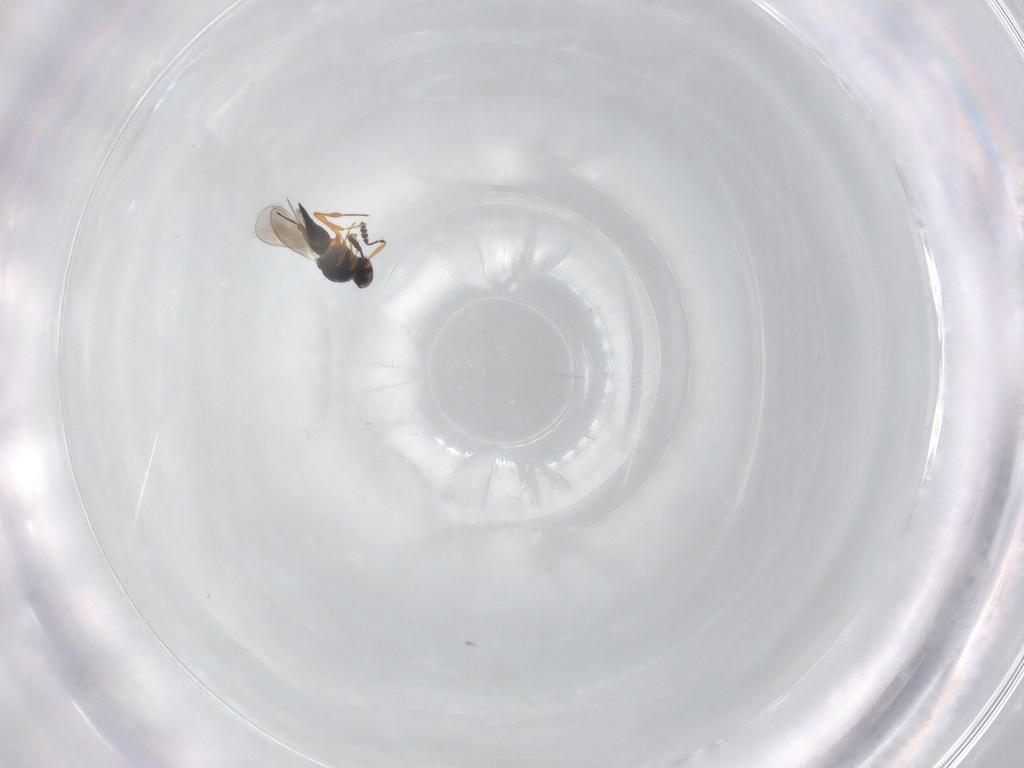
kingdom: Animalia
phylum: Arthropoda
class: Insecta
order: Hymenoptera
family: Platygastridae
